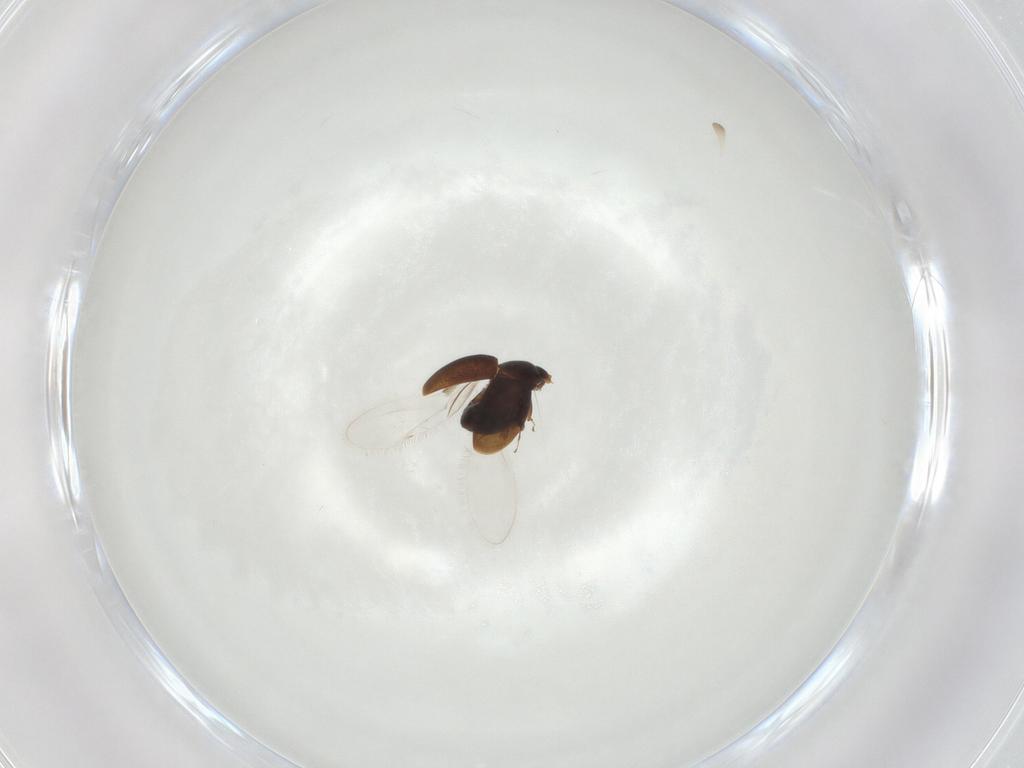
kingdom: Animalia
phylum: Arthropoda
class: Insecta
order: Coleoptera
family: Corylophidae
